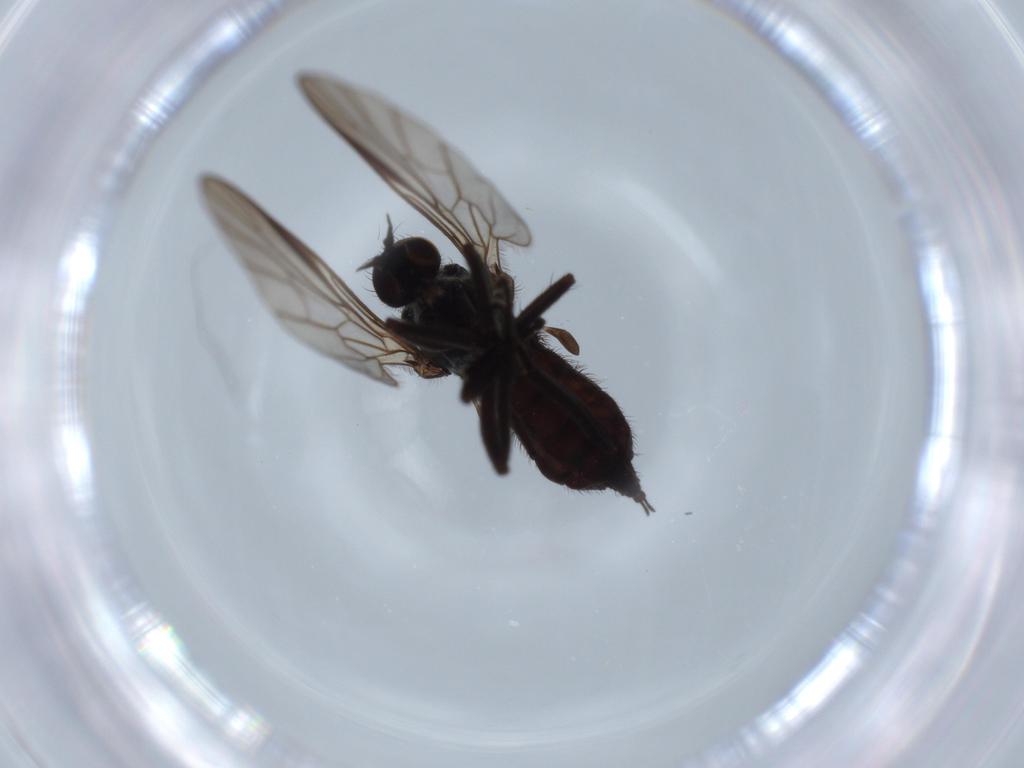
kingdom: Animalia
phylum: Arthropoda
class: Insecta
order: Diptera
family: Empididae
